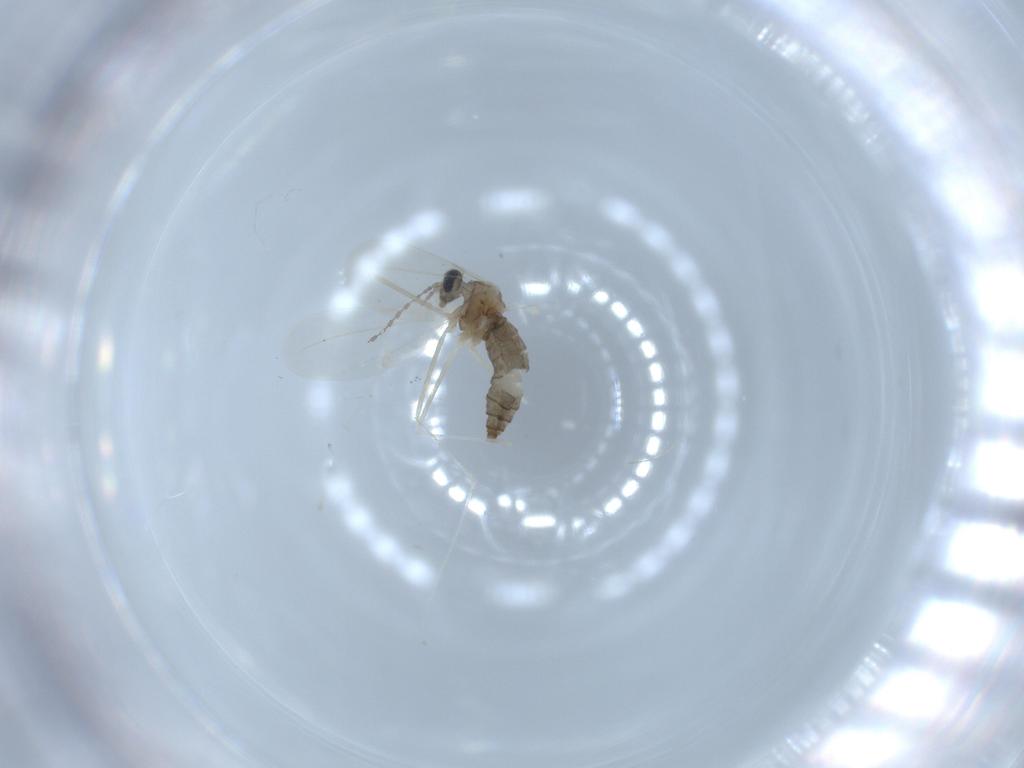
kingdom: Animalia
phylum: Arthropoda
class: Insecta
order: Diptera
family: Cecidomyiidae
